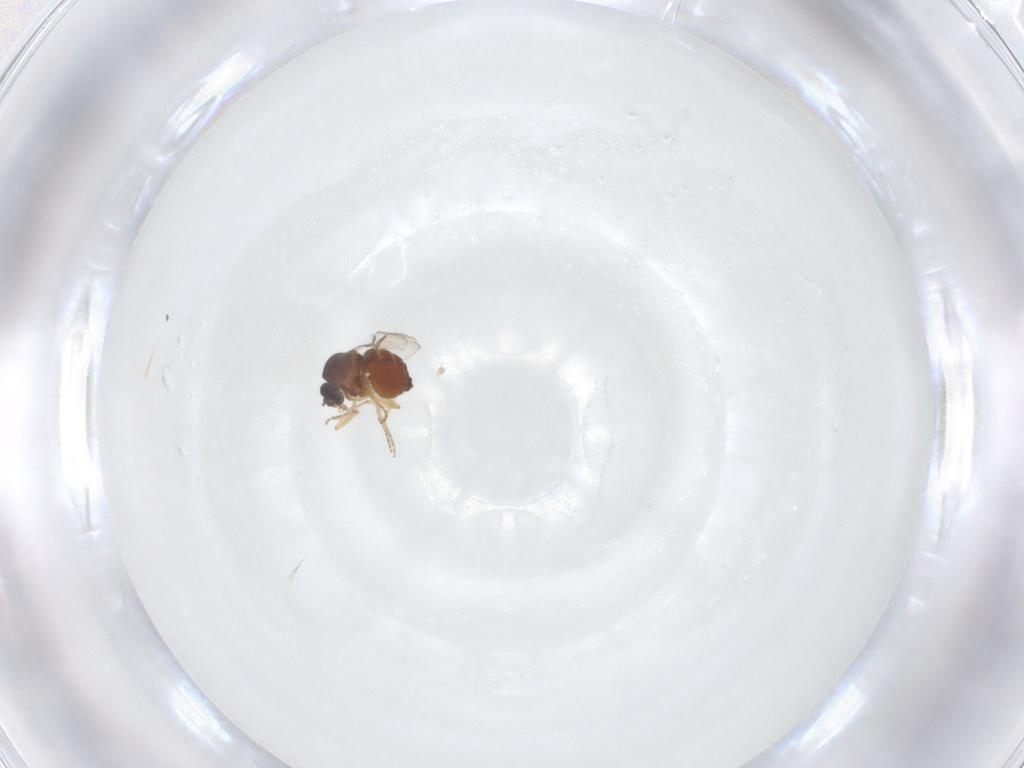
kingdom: Animalia
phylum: Arthropoda
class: Insecta
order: Diptera
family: Ceratopogonidae
